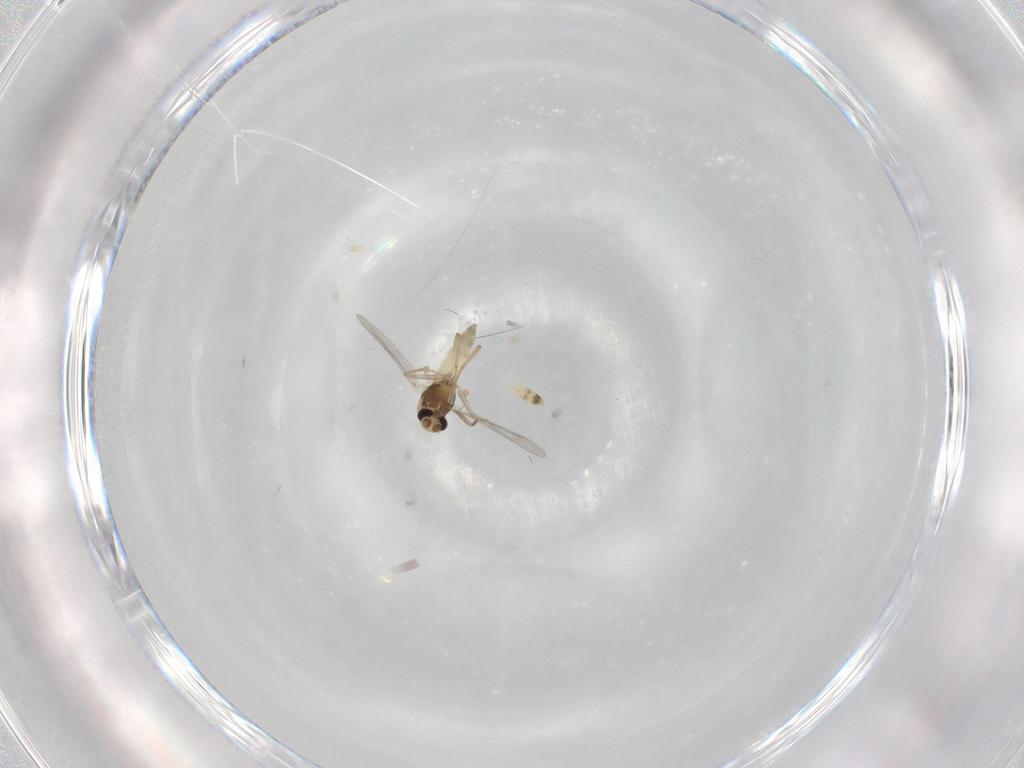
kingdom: Animalia
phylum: Arthropoda
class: Insecta
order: Diptera
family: Chironomidae
